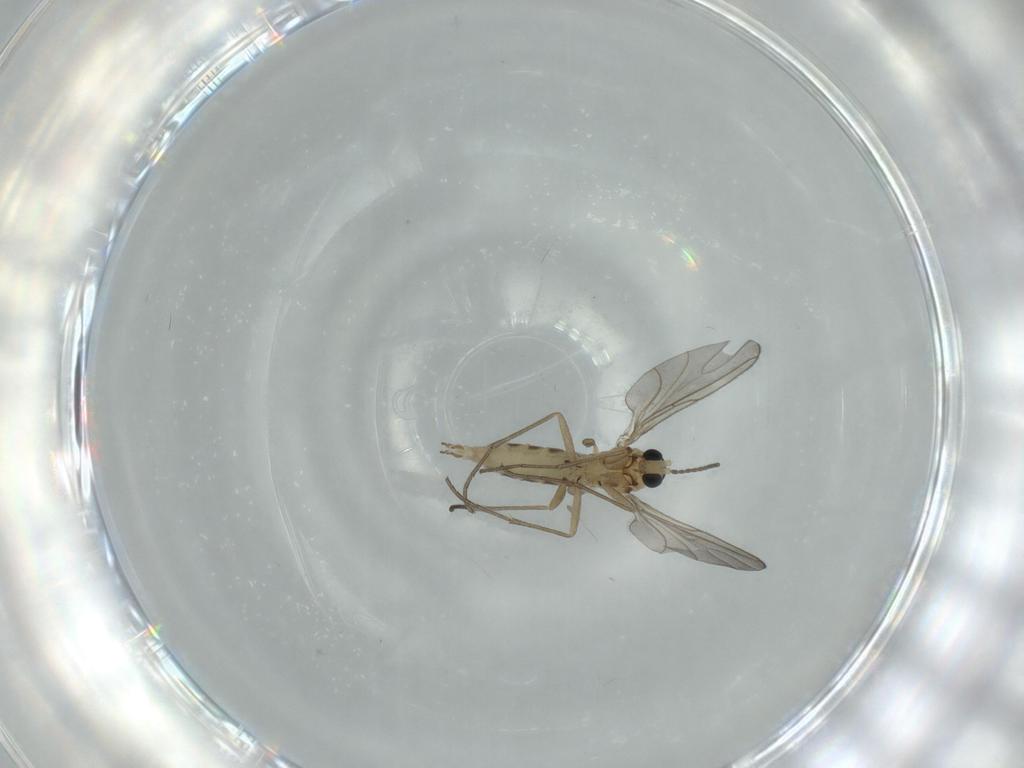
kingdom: Animalia
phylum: Arthropoda
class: Insecta
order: Diptera
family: Sciaridae
